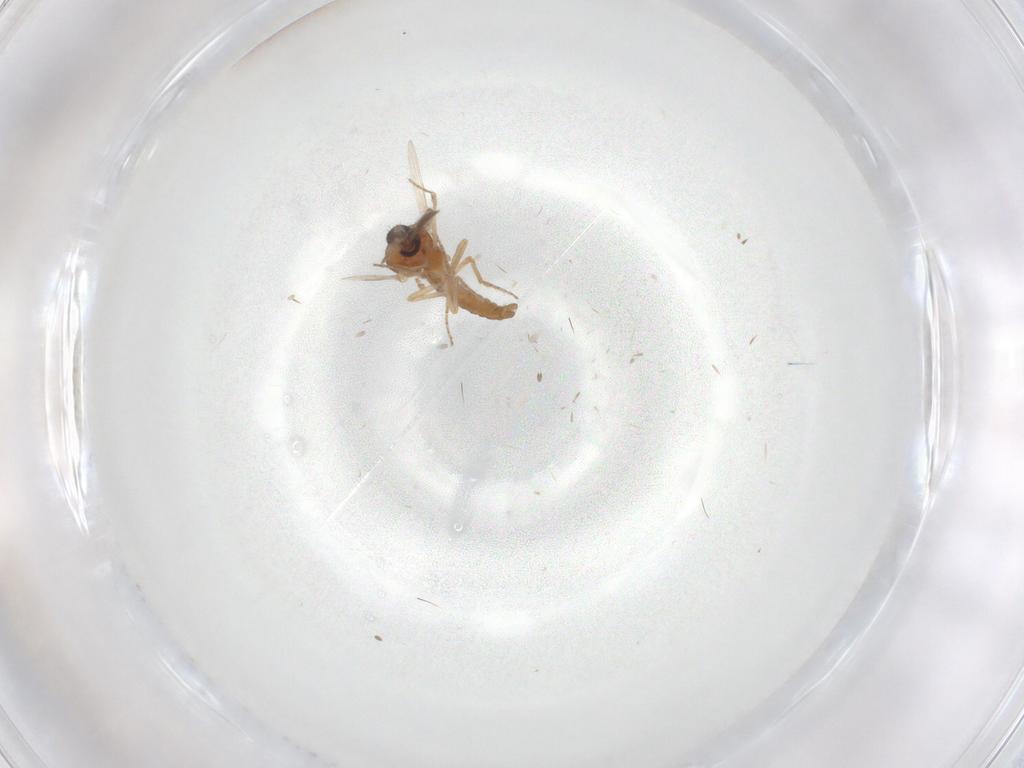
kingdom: Animalia
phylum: Arthropoda
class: Insecta
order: Diptera
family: Ceratopogonidae
